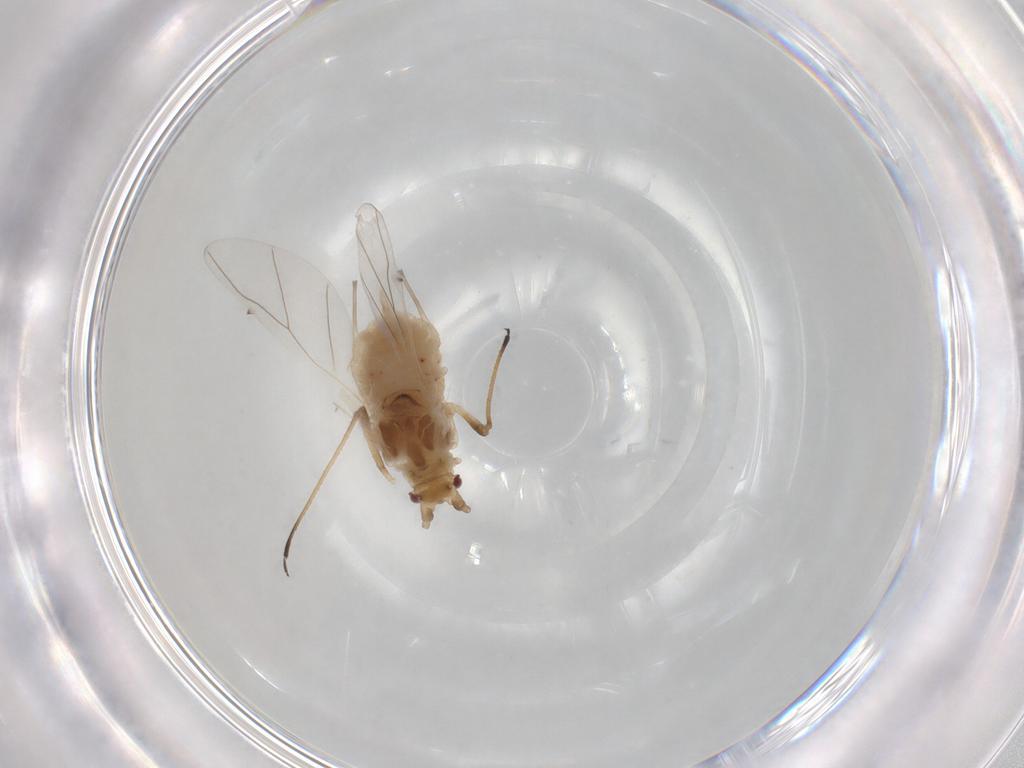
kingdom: Animalia
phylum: Arthropoda
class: Insecta
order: Hemiptera
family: Aphididae
